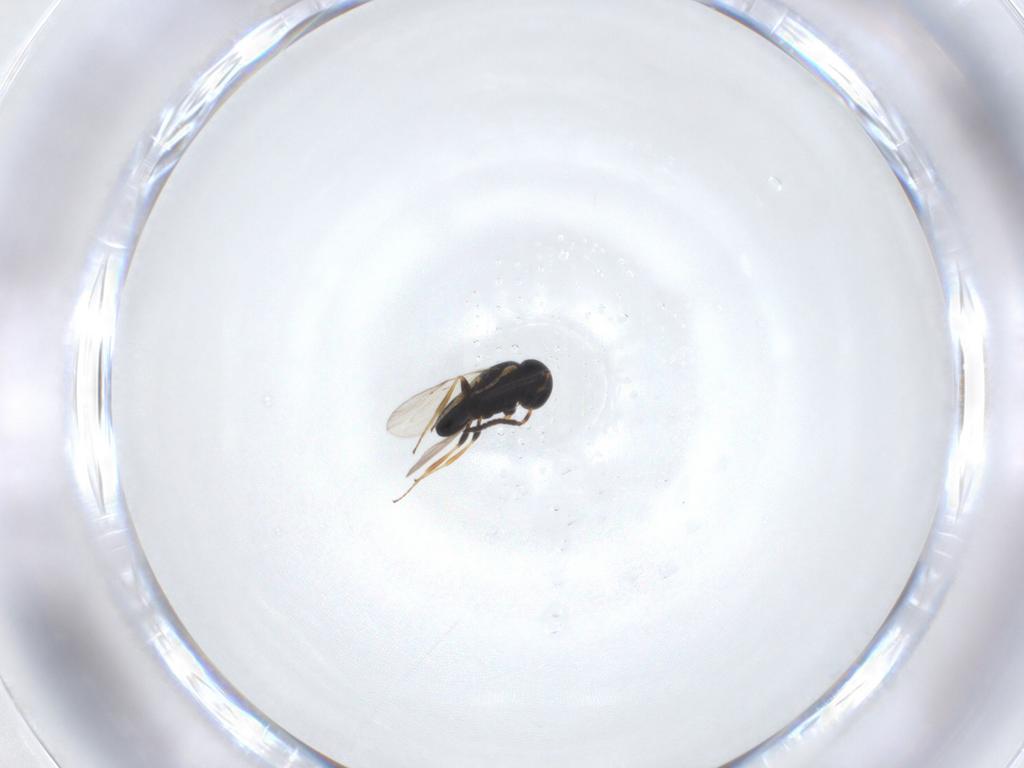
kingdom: Animalia
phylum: Arthropoda
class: Insecta
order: Hymenoptera
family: Scelionidae
